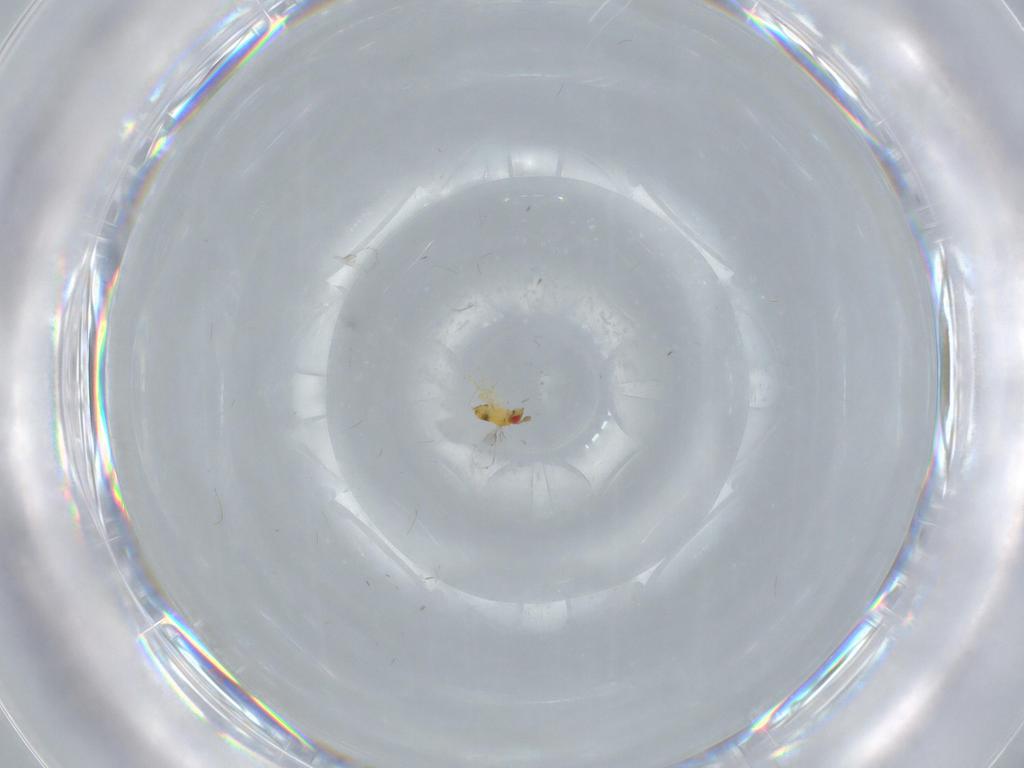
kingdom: Animalia
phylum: Arthropoda
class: Insecta
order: Hymenoptera
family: Trichogrammatidae
